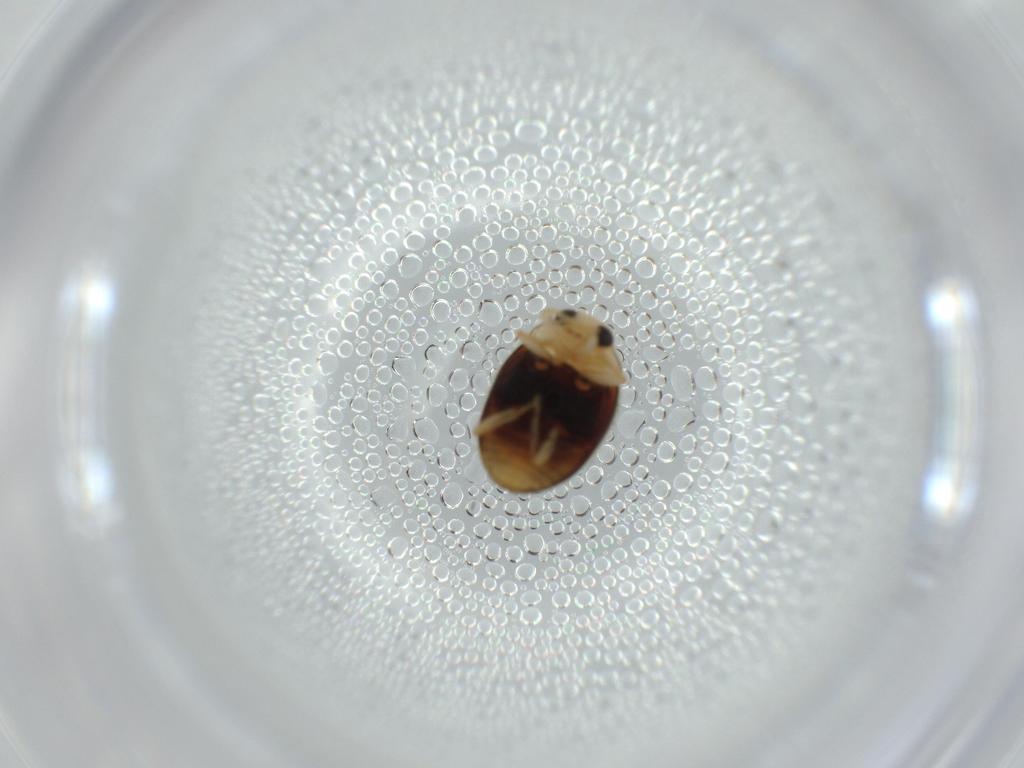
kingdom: Animalia
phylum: Arthropoda
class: Insecta
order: Coleoptera
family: Coccinellidae
